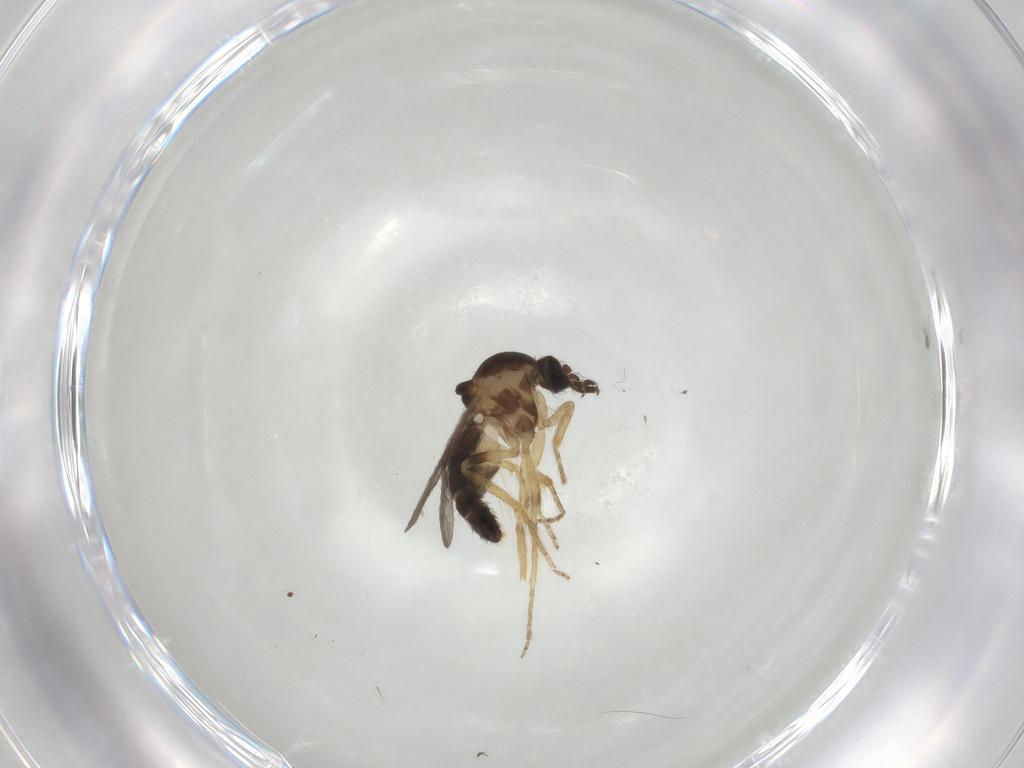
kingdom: Animalia
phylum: Arthropoda
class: Insecta
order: Diptera
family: Ceratopogonidae
